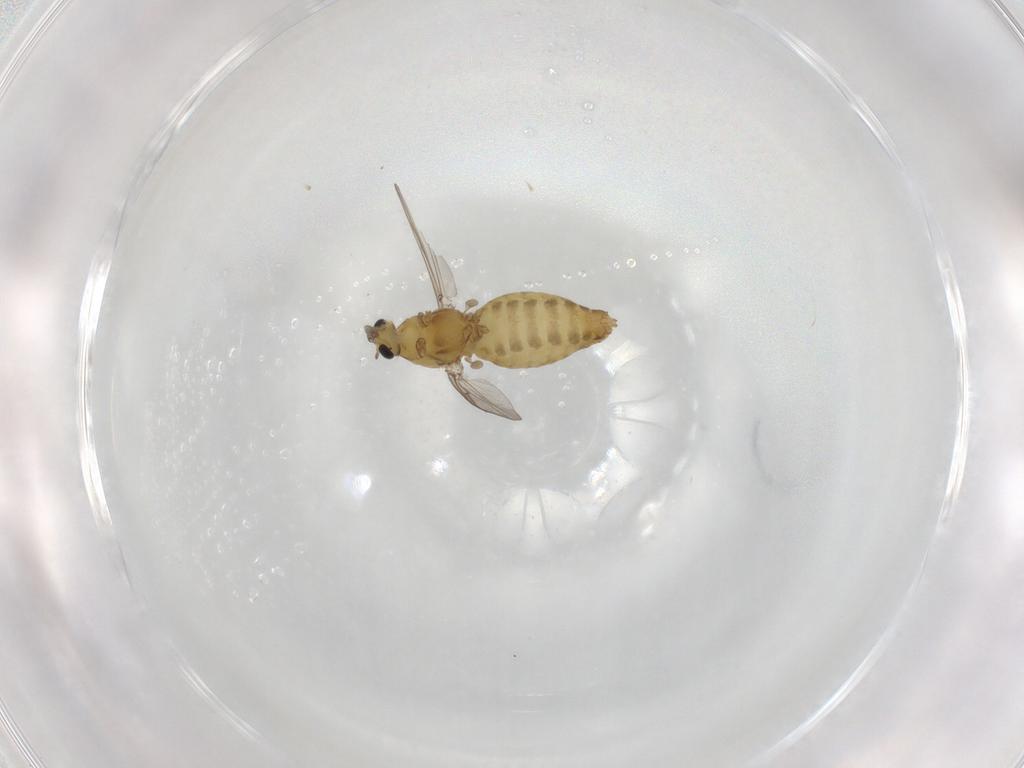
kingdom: Animalia
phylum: Arthropoda
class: Insecta
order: Diptera
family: Chironomidae
